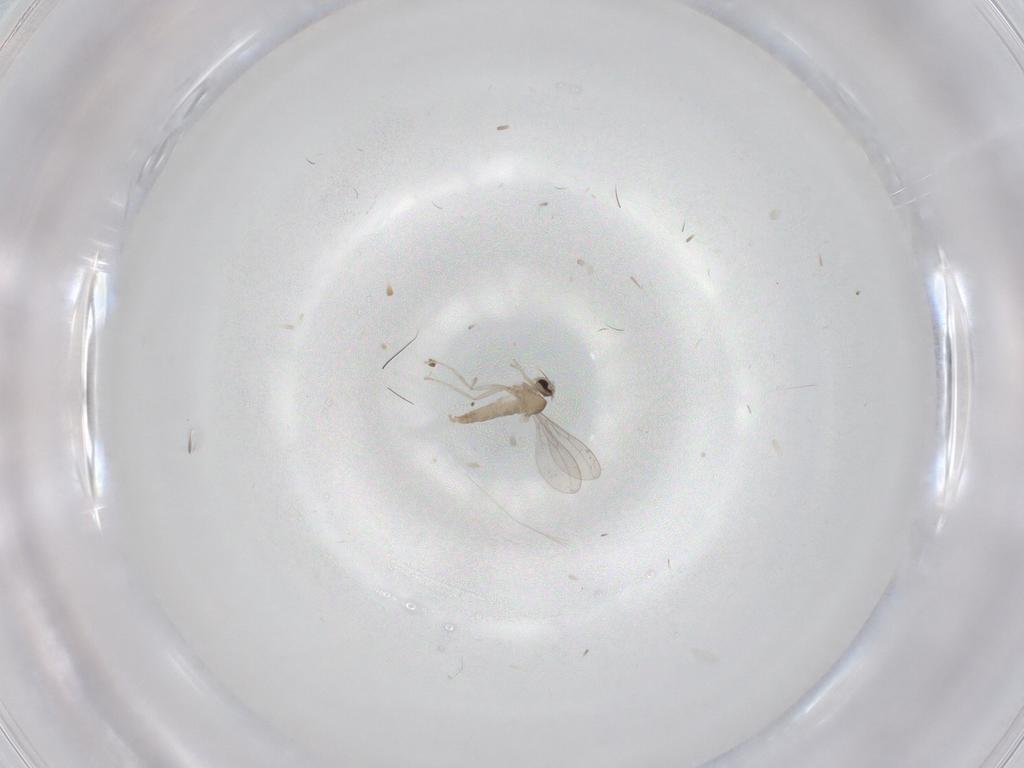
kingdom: Animalia
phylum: Arthropoda
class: Insecta
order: Diptera
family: Cecidomyiidae
